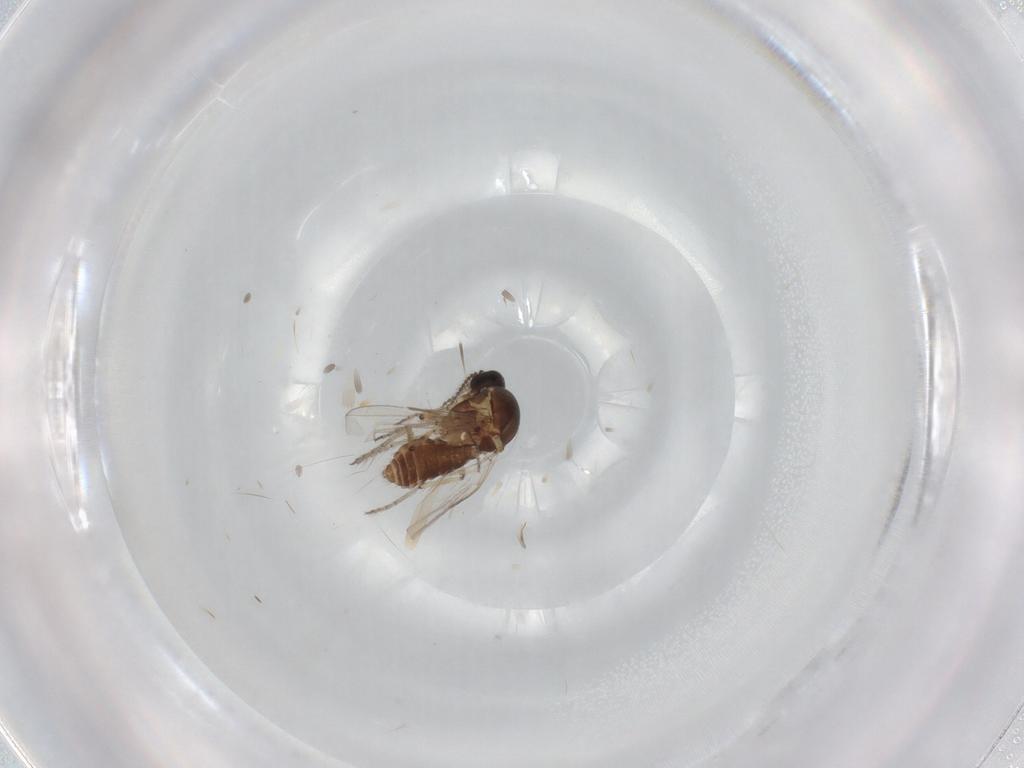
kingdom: Animalia
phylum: Arthropoda
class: Insecta
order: Diptera
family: Ceratopogonidae
